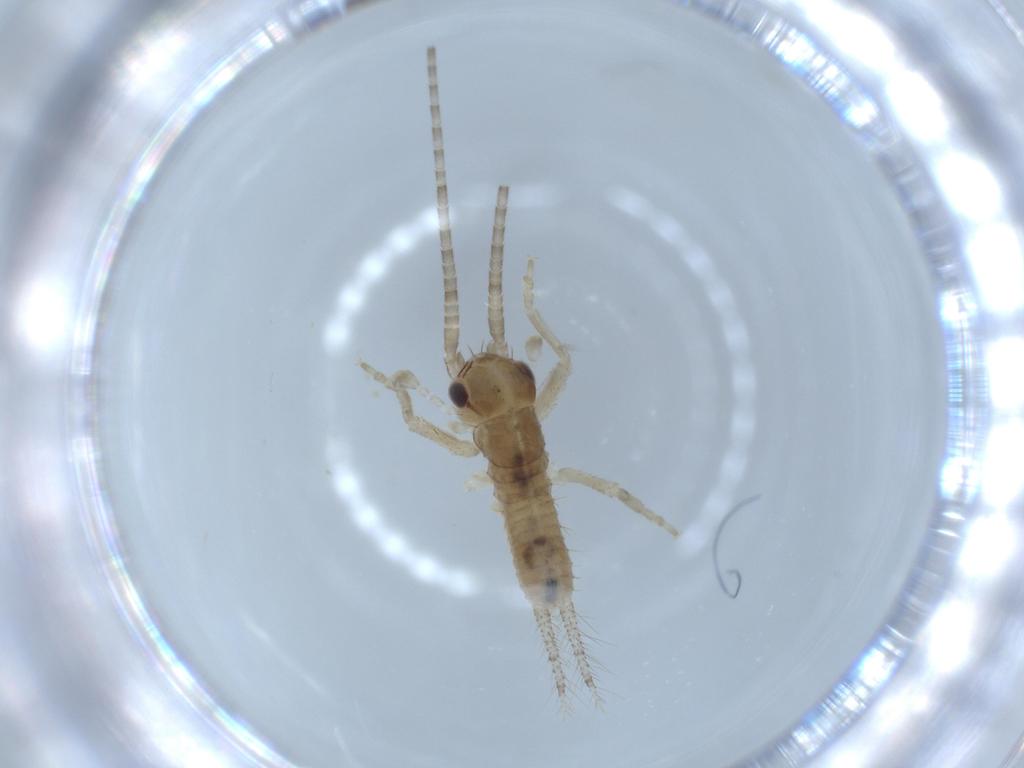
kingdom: Animalia
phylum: Arthropoda
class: Insecta
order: Orthoptera
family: Gryllidae
